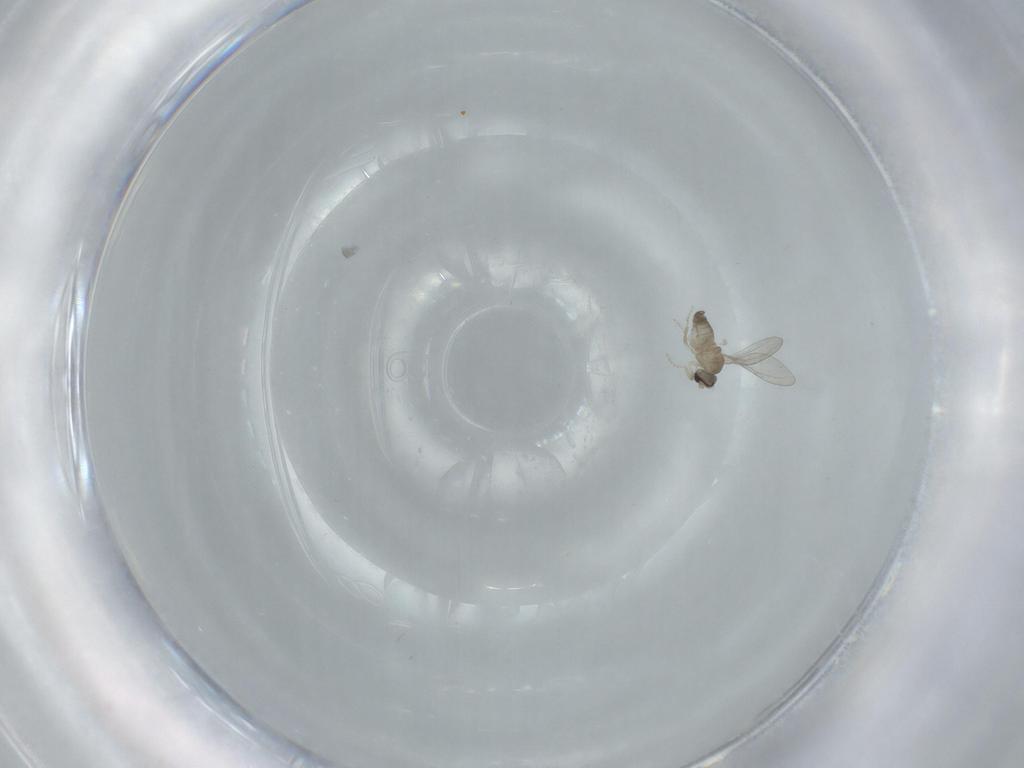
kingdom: Animalia
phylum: Arthropoda
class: Insecta
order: Diptera
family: Cecidomyiidae
